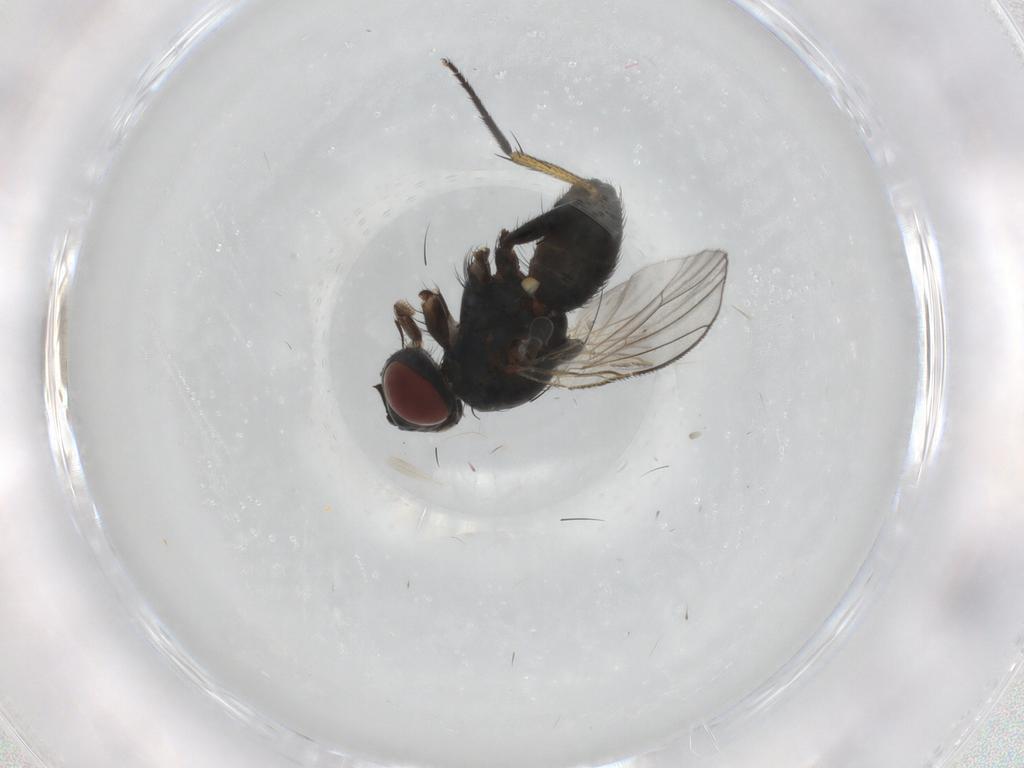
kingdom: Animalia
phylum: Arthropoda
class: Insecta
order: Diptera
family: Muscidae
